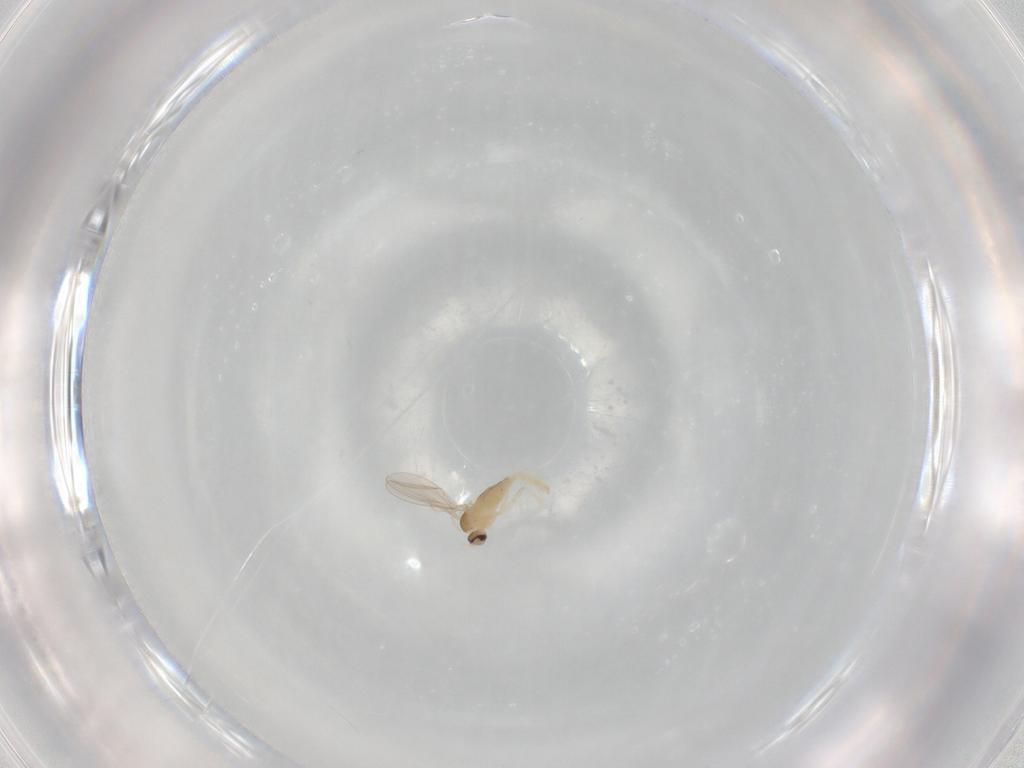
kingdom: Animalia
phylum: Arthropoda
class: Insecta
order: Diptera
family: Cecidomyiidae
